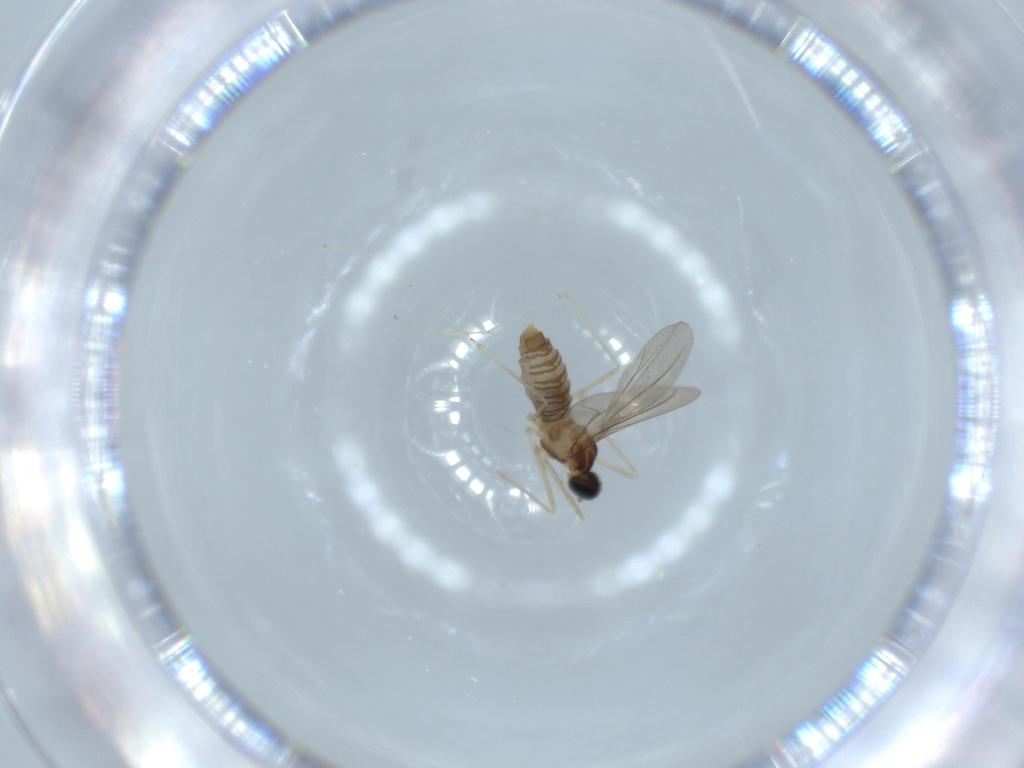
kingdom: Animalia
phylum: Arthropoda
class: Insecta
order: Diptera
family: Cecidomyiidae
